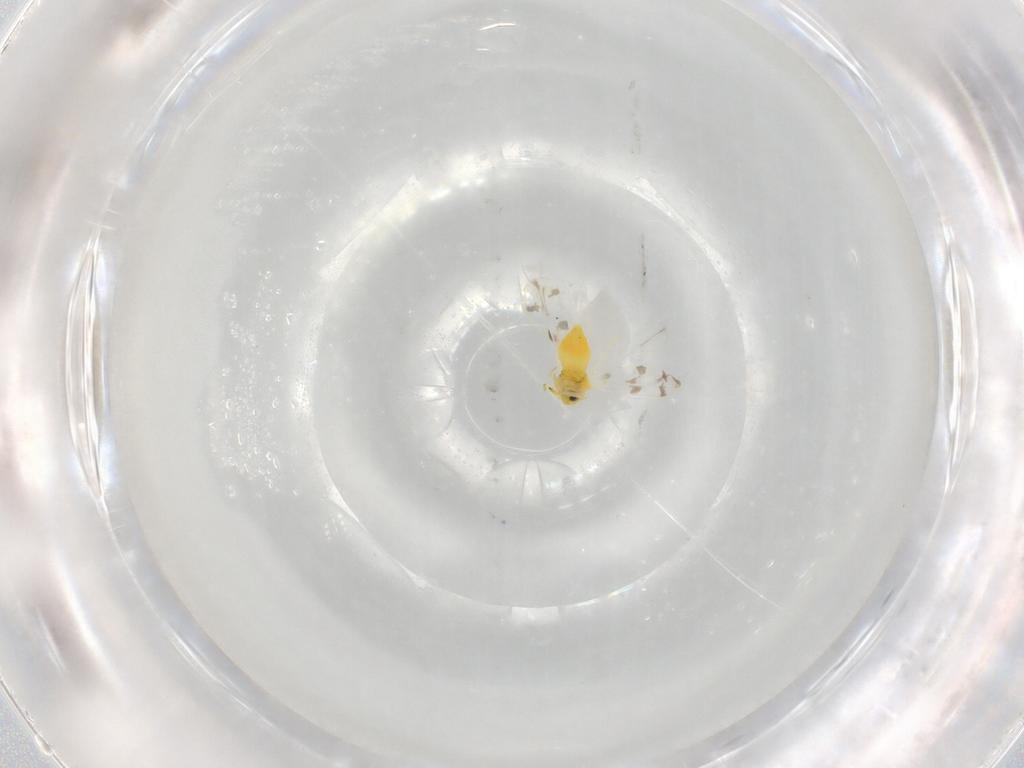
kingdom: Animalia
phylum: Arthropoda
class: Insecta
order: Hemiptera
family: Aleyrodidae
